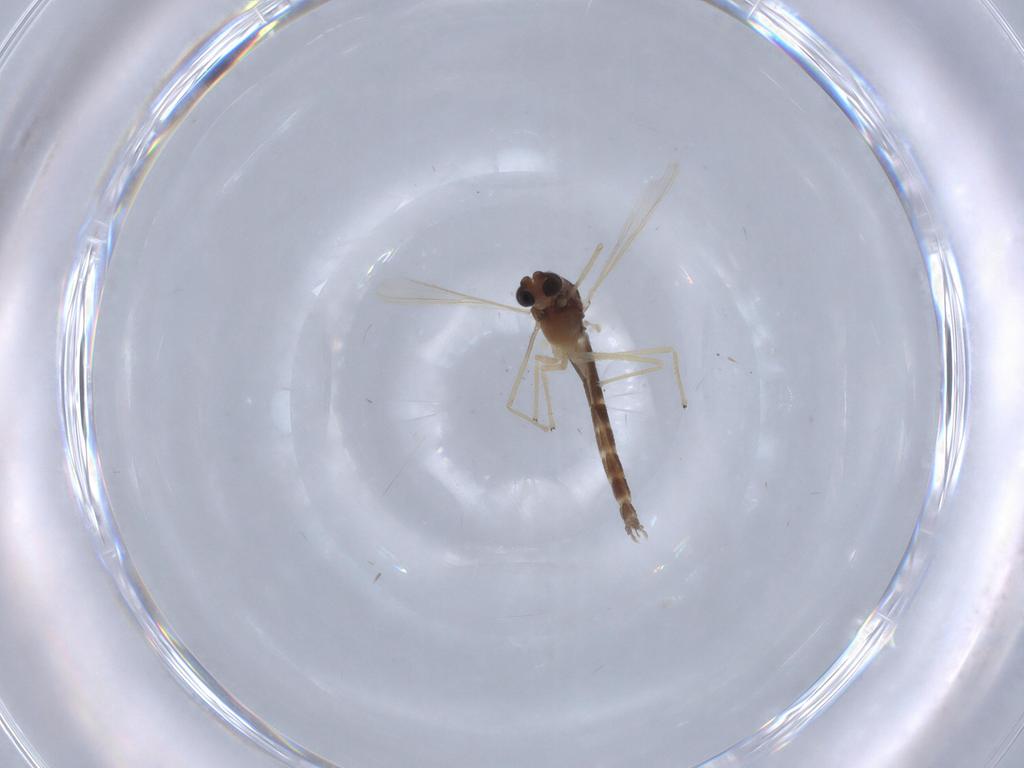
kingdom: Animalia
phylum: Arthropoda
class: Insecta
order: Diptera
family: Chironomidae
